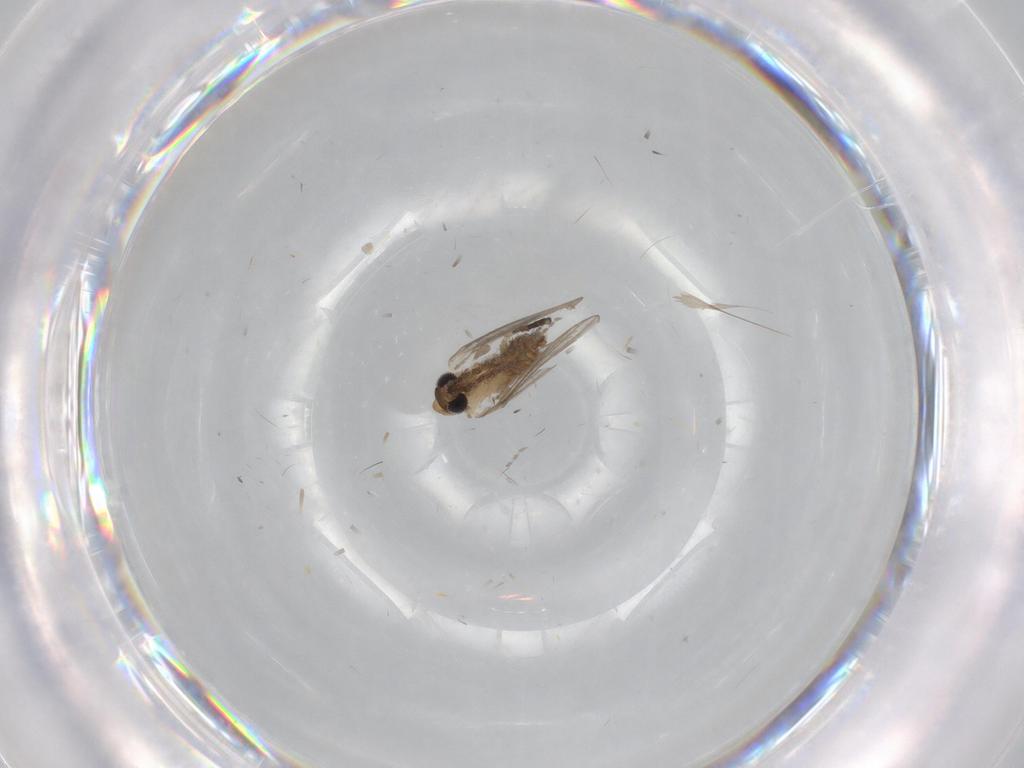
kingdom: Animalia
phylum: Arthropoda
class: Insecta
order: Diptera
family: Psychodidae
